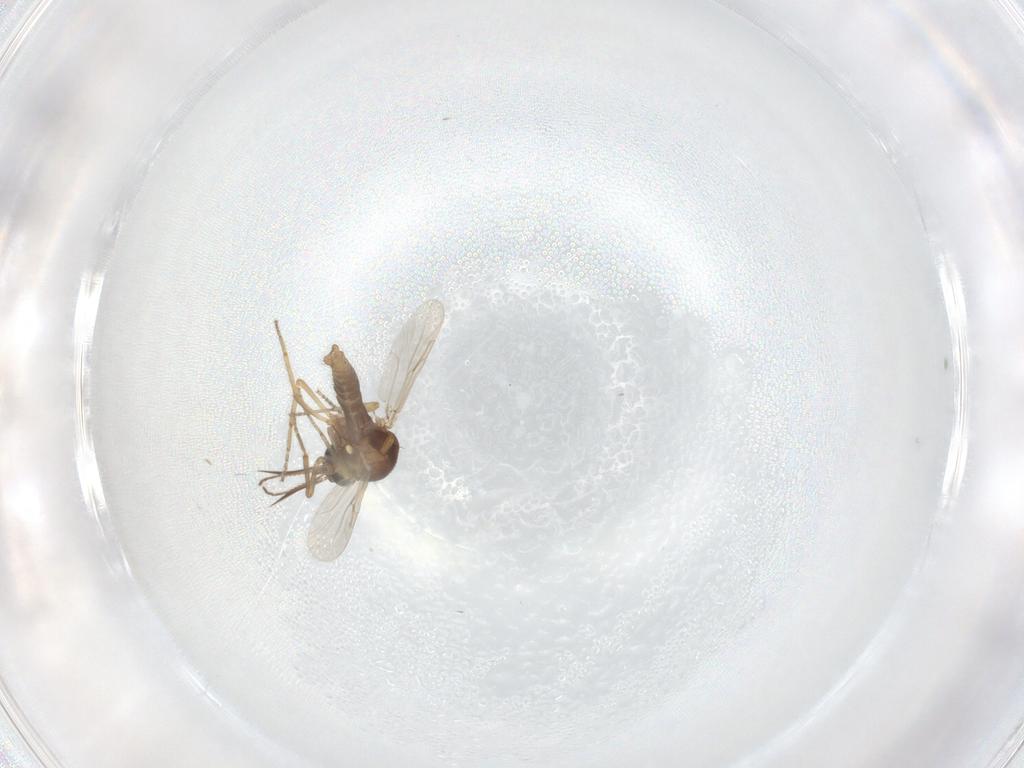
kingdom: Animalia
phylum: Arthropoda
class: Insecta
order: Diptera
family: Ceratopogonidae
